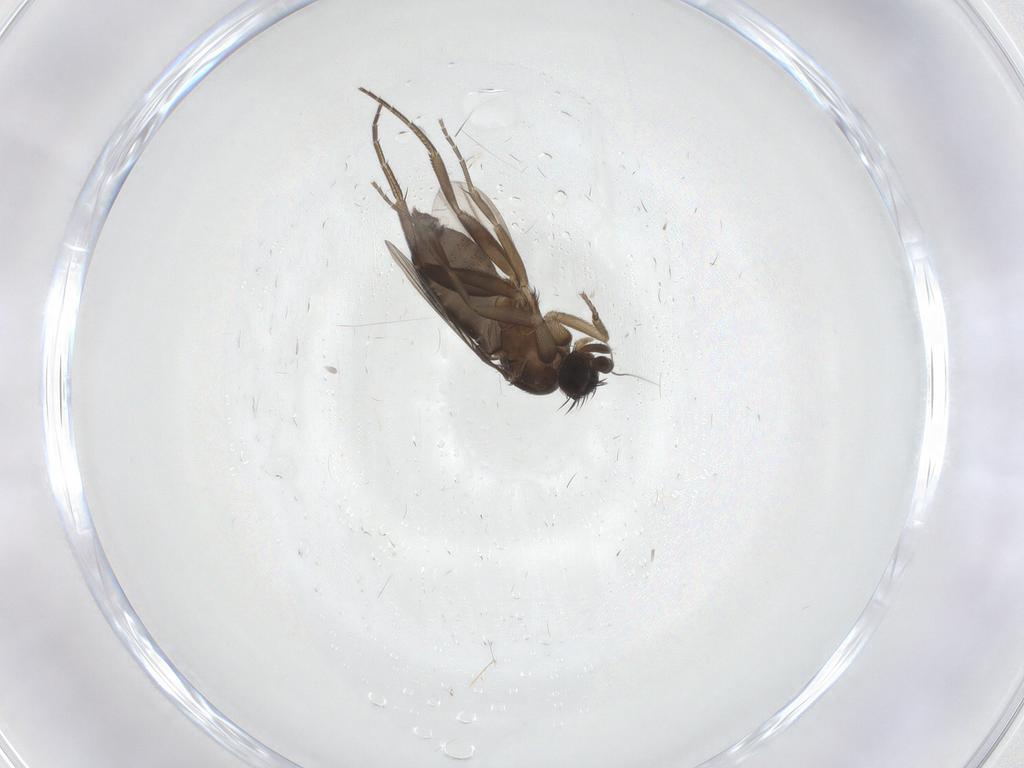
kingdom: Animalia
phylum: Arthropoda
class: Insecta
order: Diptera
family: Phoridae
